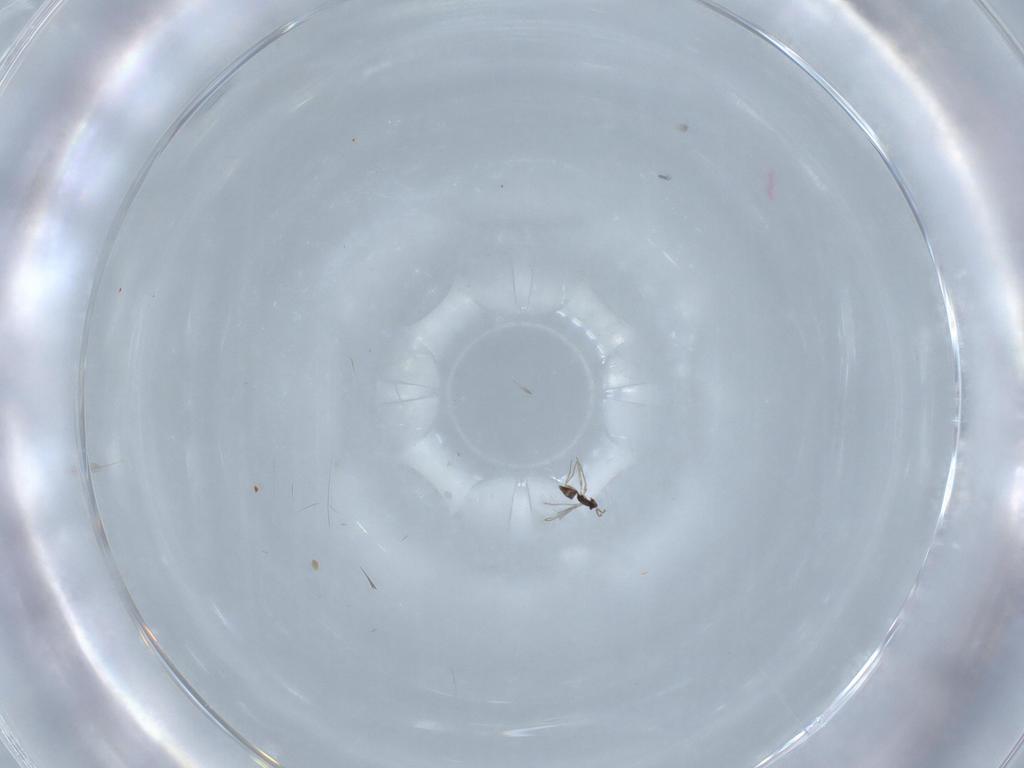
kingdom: Animalia
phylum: Arthropoda
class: Insecta
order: Hymenoptera
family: Mymaridae
